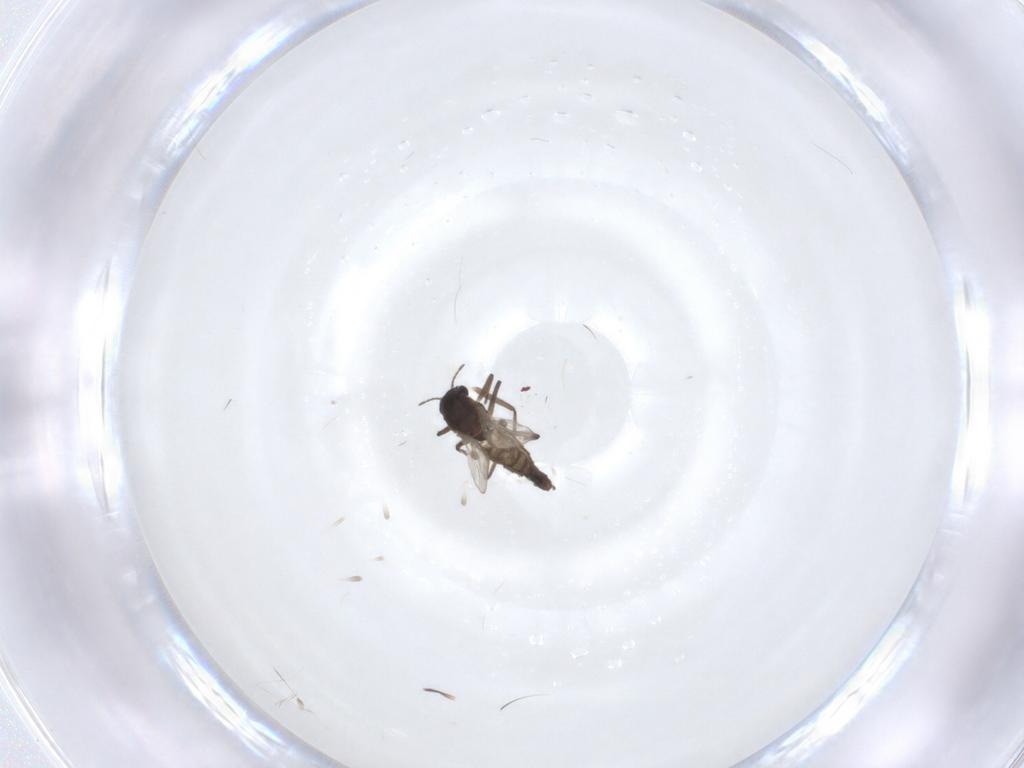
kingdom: Animalia
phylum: Arthropoda
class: Insecta
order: Diptera
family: Chironomidae
